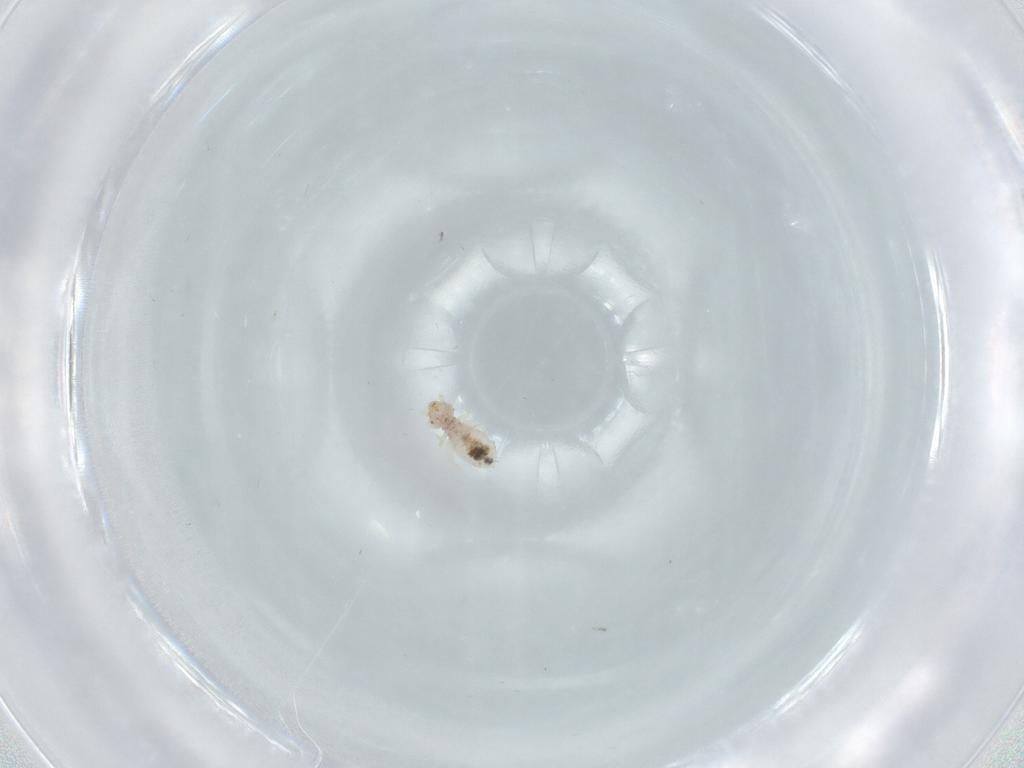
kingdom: Animalia
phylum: Arthropoda
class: Insecta
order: Psocodea
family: Liposcelididae
